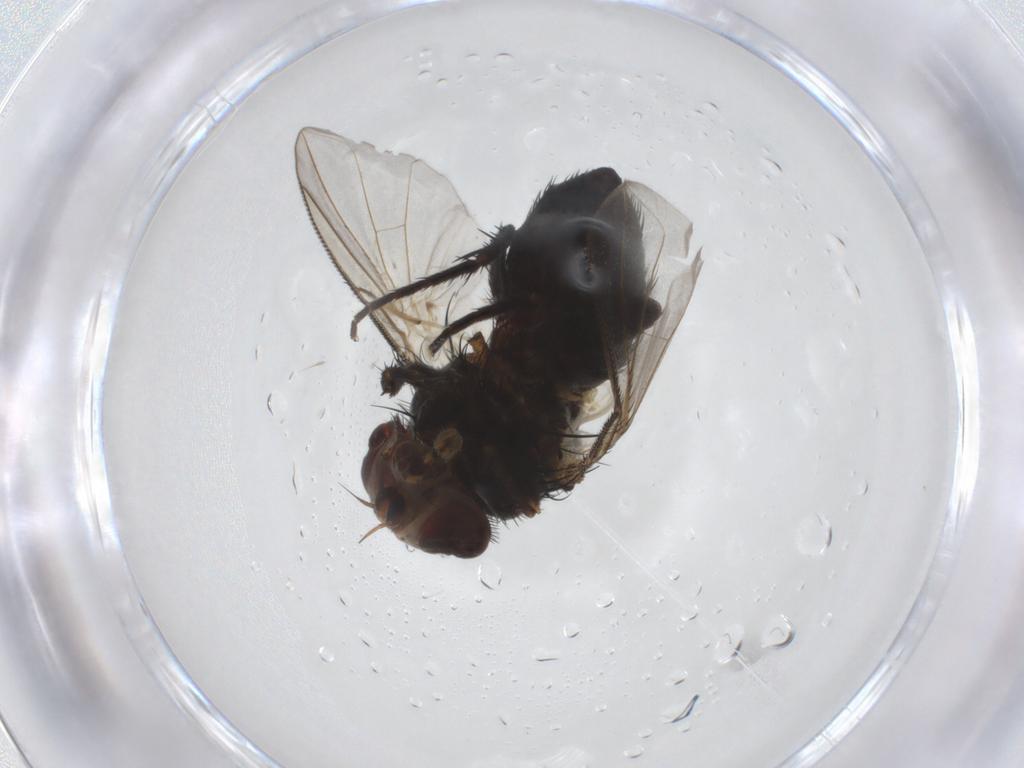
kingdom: Animalia
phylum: Arthropoda
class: Insecta
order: Diptera
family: Tachinidae
